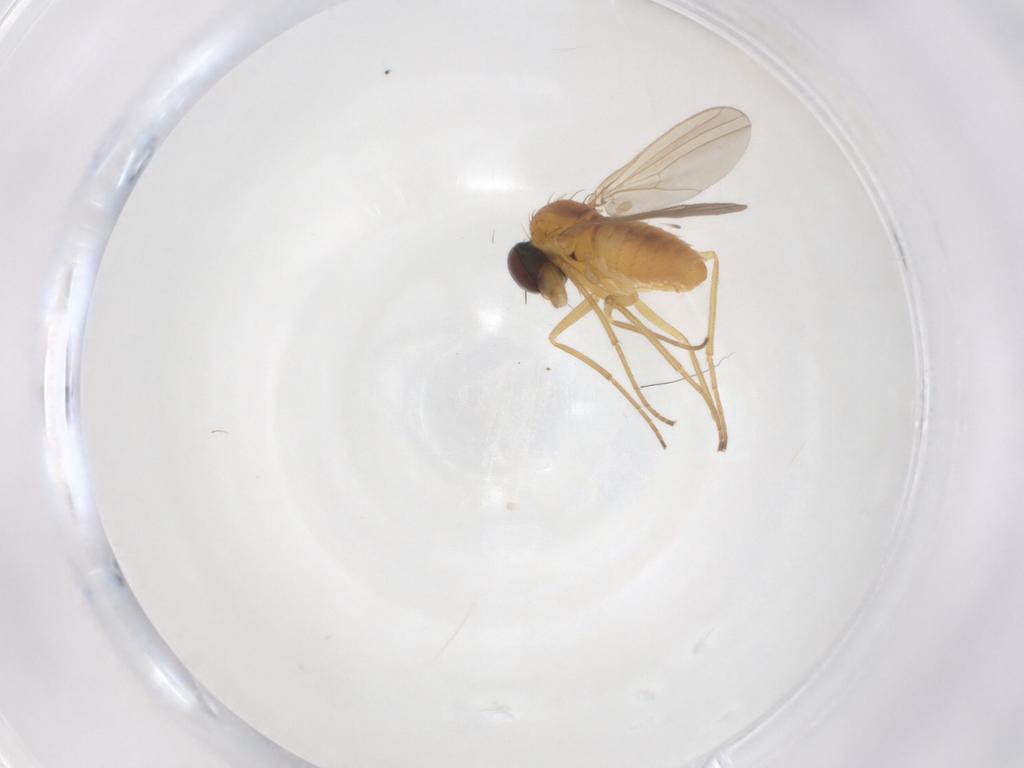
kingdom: Animalia
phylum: Arthropoda
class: Insecta
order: Diptera
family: Dolichopodidae
